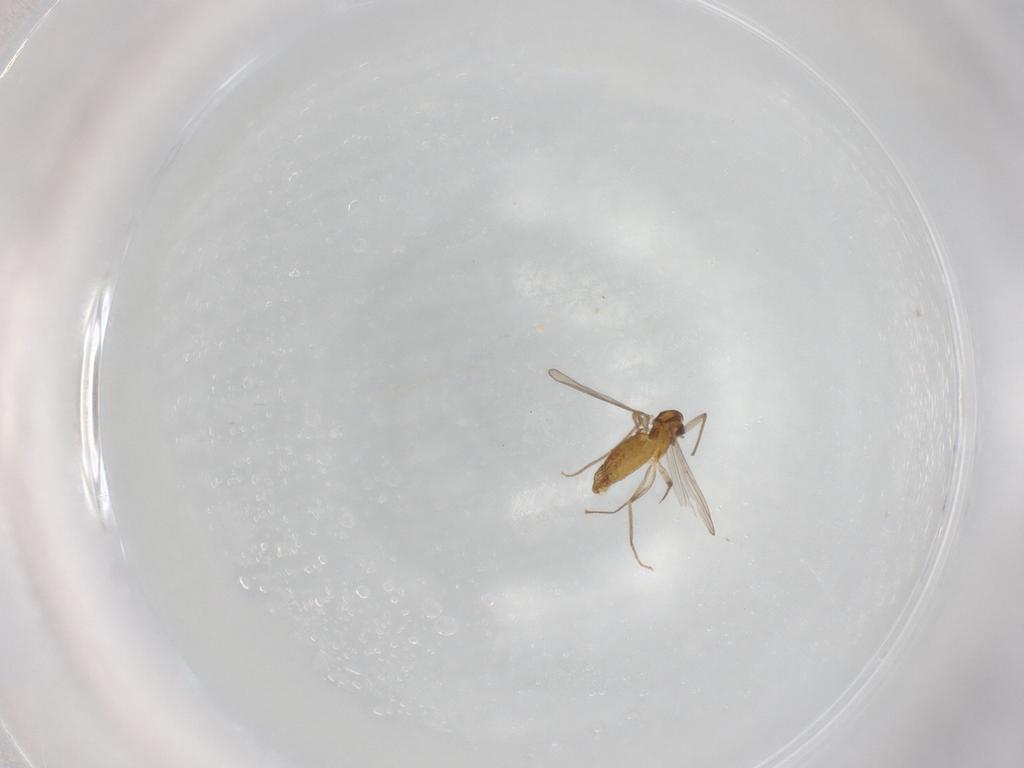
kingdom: Animalia
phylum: Arthropoda
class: Insecta
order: Diptera
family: Chironomidae
